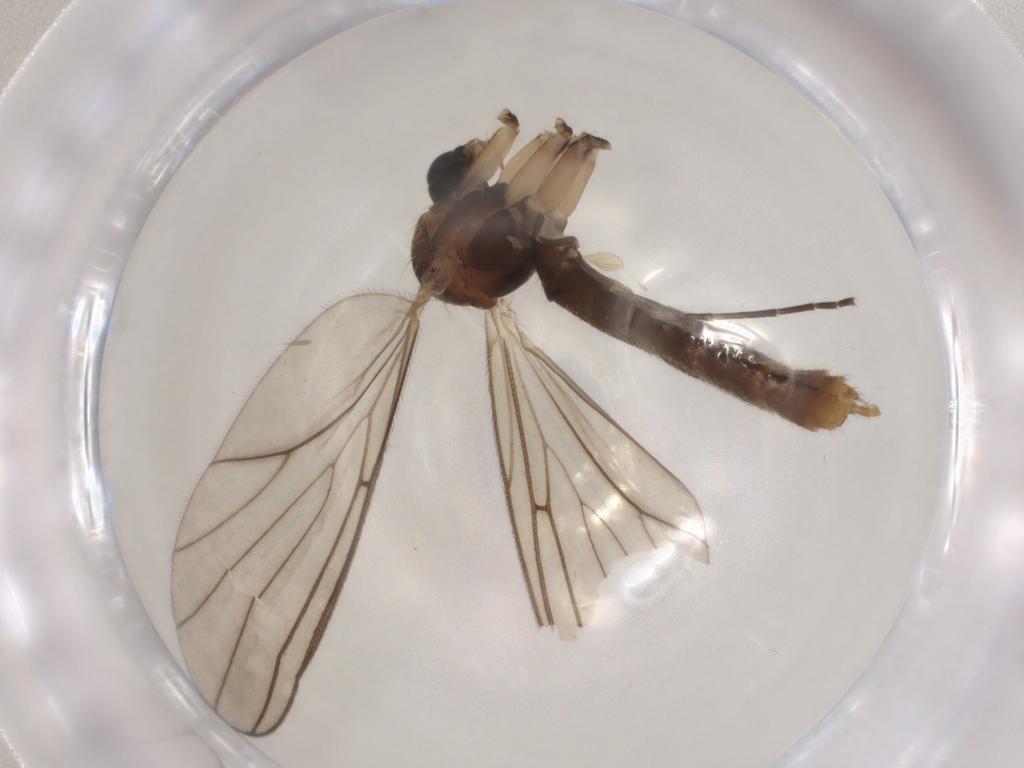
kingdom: Animalia
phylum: Arthropoda
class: Insecta
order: Diptera
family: Mycetophilidae
